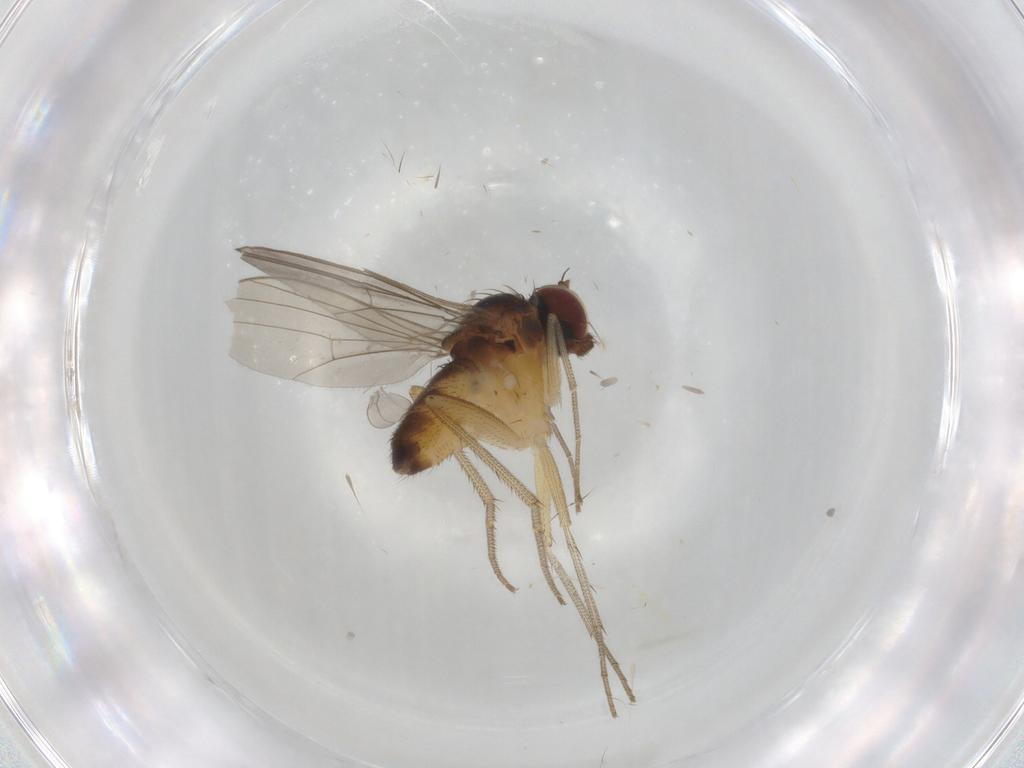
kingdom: Animalia
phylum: Arthropoda
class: Insecta
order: Diptera
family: Dolichopodidae
